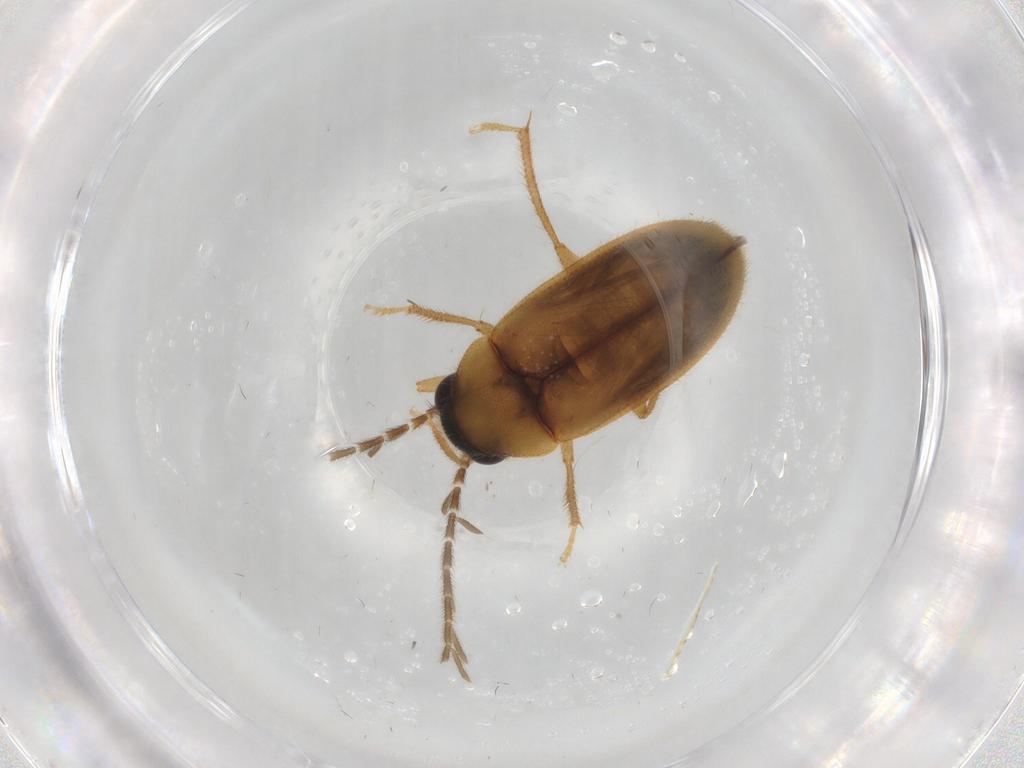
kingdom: Animalia
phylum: Arthropoda
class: Insecta
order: Coleoptera
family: Ptilodactylidae
